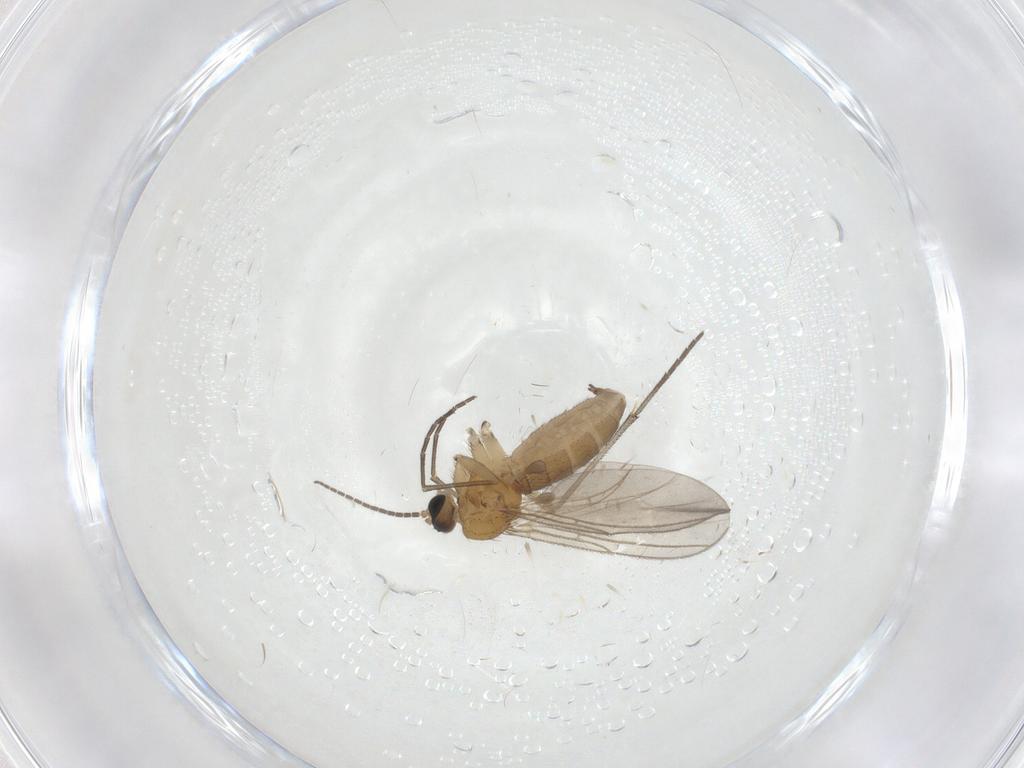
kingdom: Animalia
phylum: Arthropoda
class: Insecta
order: Diptera
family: Sciaridae
